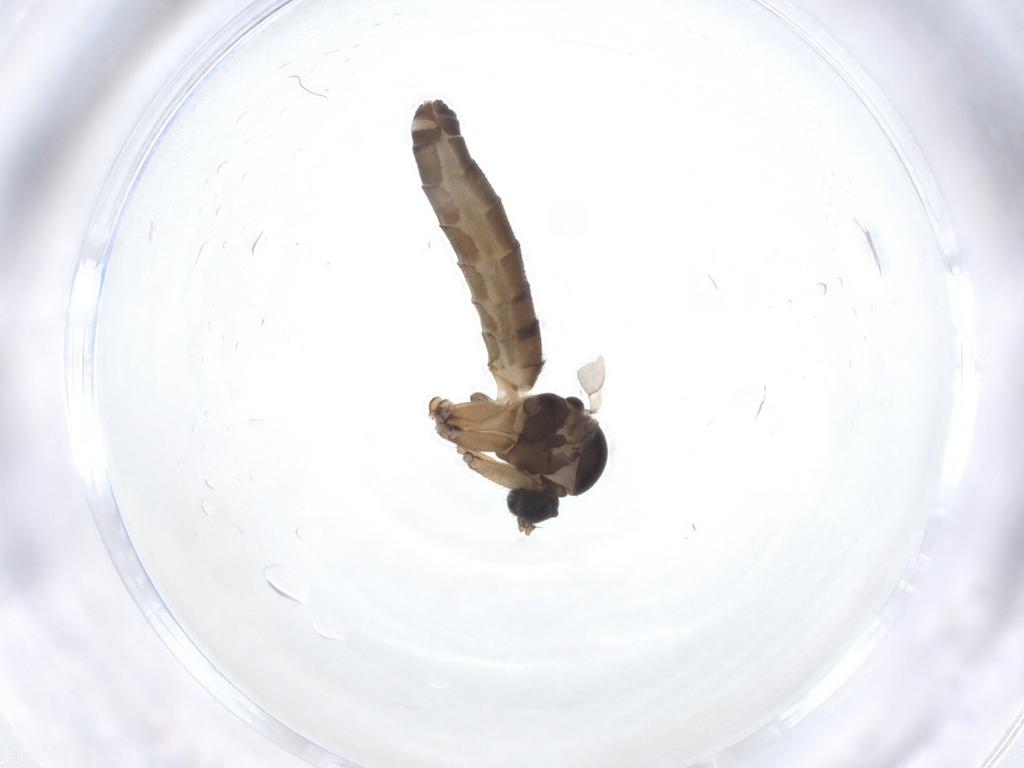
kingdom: Animalia
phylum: Arthropoda
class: Insecta
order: Diptera
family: Mycetophilidae
